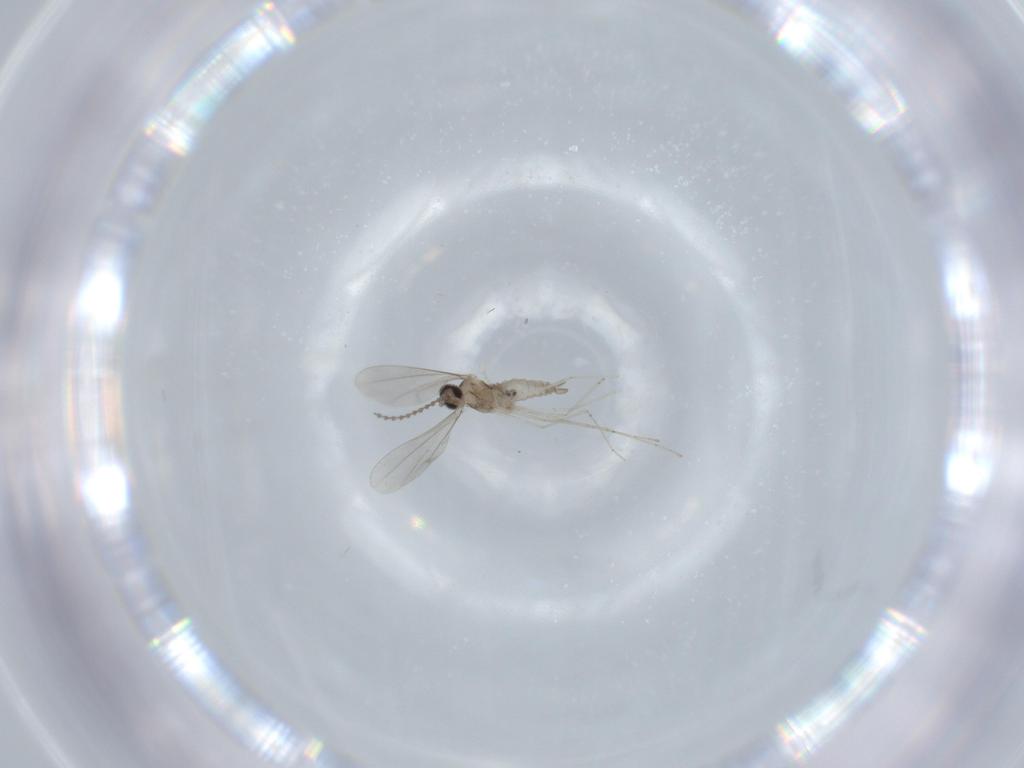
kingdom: Animalia
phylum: Arthropoda
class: Insecta
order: Diptera
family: Cecidomyiidae
